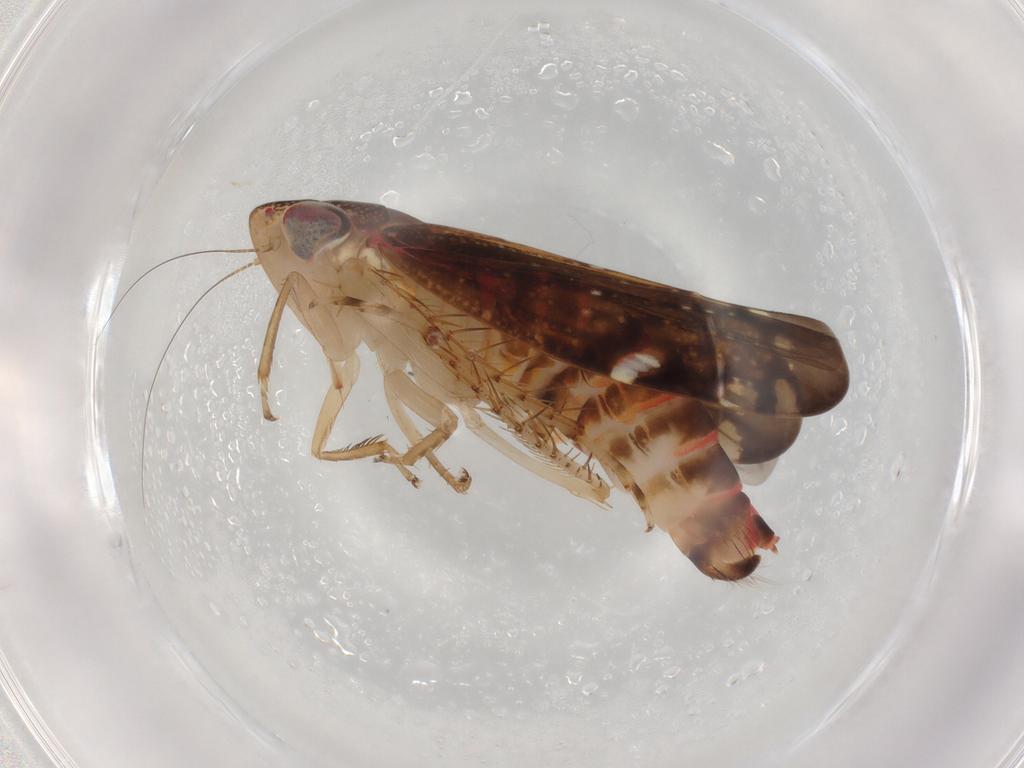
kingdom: Animalia
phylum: Arthropoda
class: Insecta
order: Hemiptera
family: Cicadellidae
